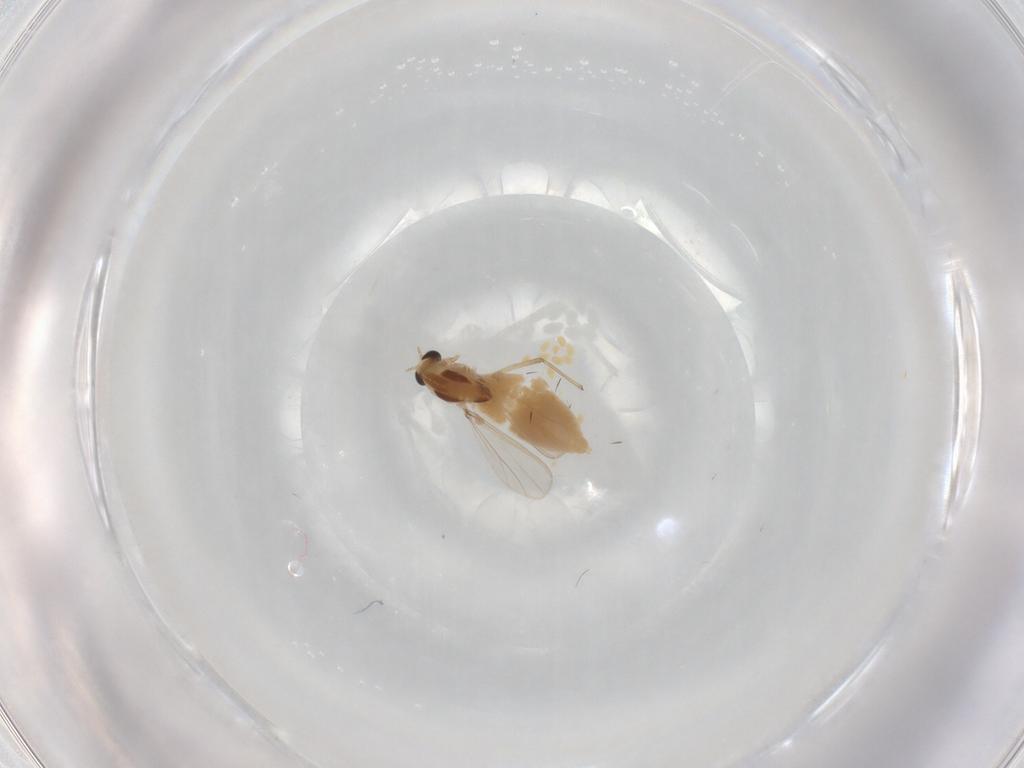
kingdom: Animalia
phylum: Arthropoda
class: Insecta
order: Diptera
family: Chironomidae
